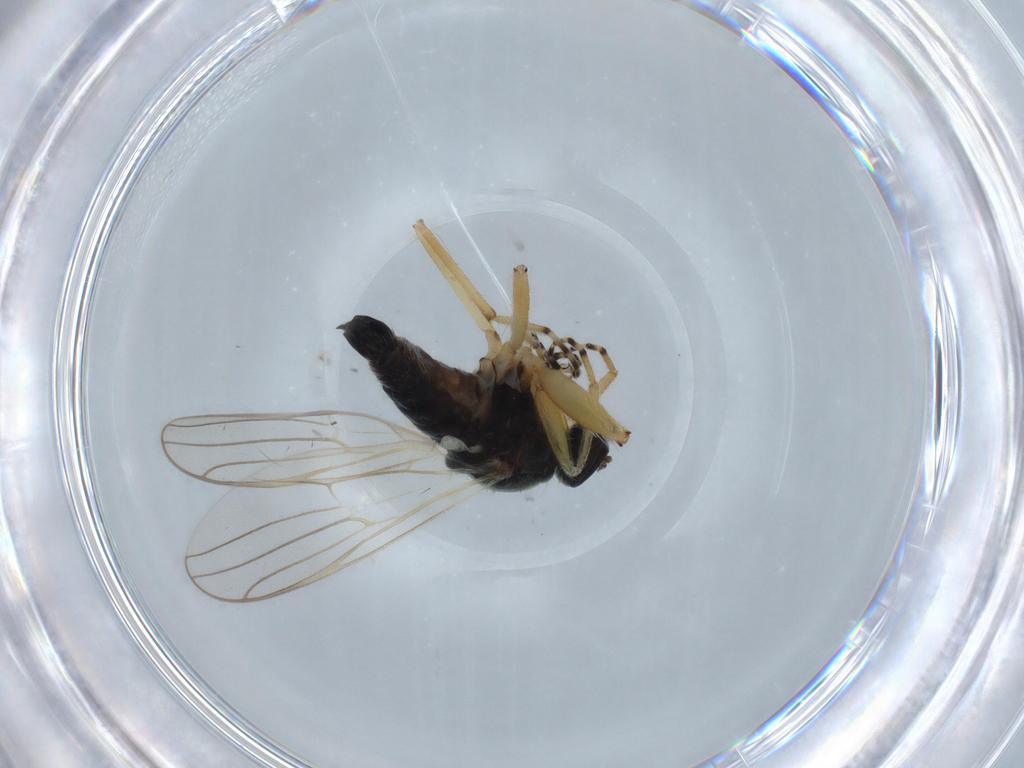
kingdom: Animalia
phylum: Arthropoda
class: Insecta
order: Diptera
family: Hybotidae
